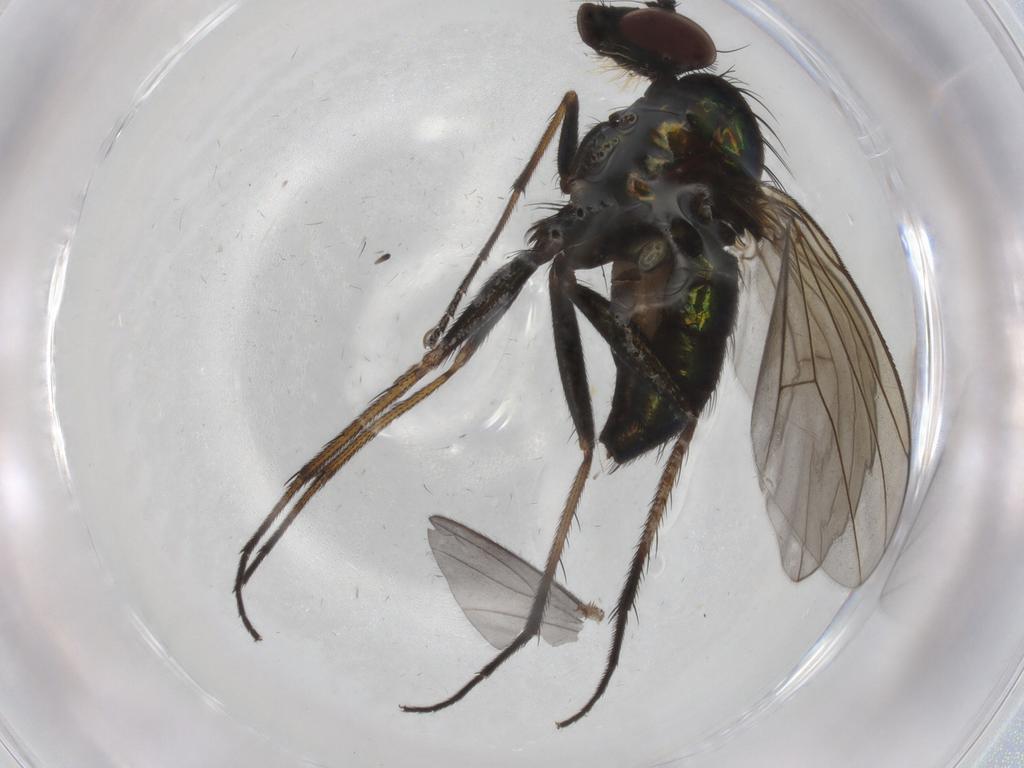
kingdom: Animalia
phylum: Arthropoda
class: Insecta
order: Diptera
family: Dolichopodidae
